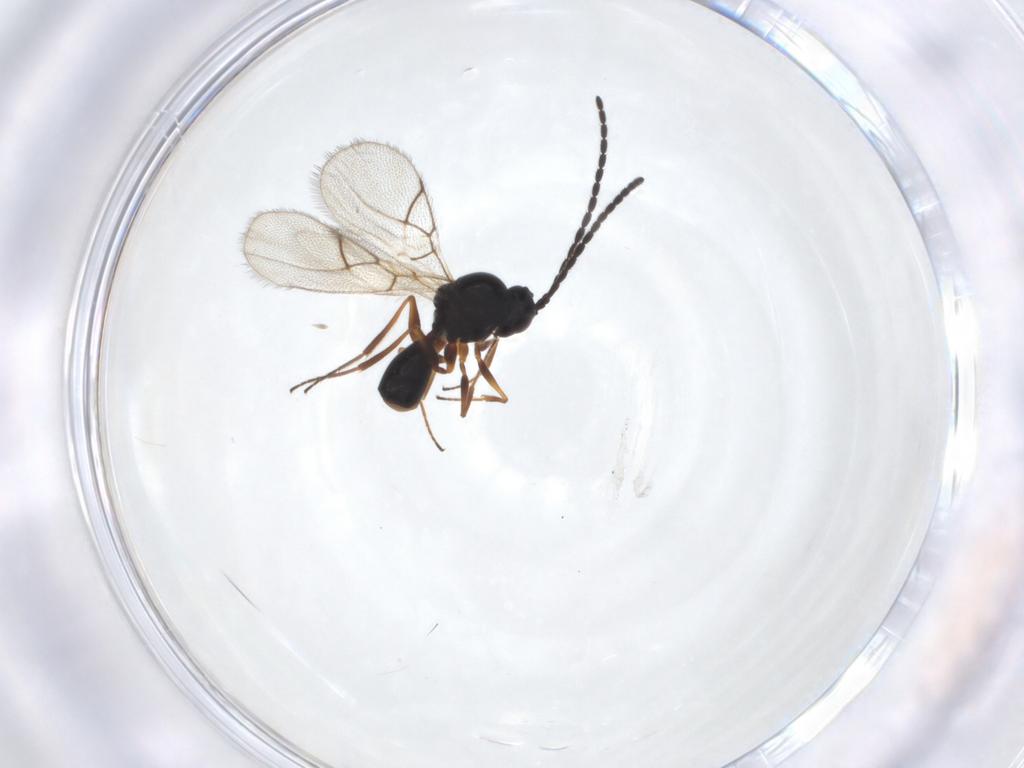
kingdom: Animalia
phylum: Arthropoda
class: Insecta
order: Hymenoptera
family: Figitidae
